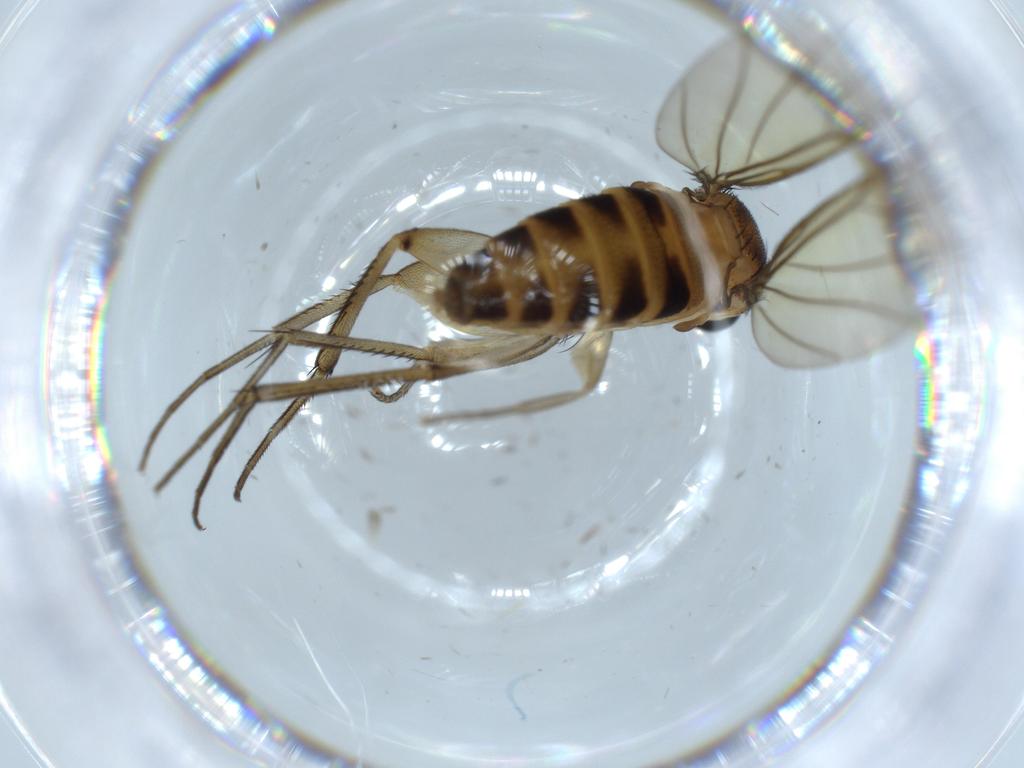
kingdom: Animalia
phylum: Arthropoda
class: Insecta
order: Diptera
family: Phoridae
